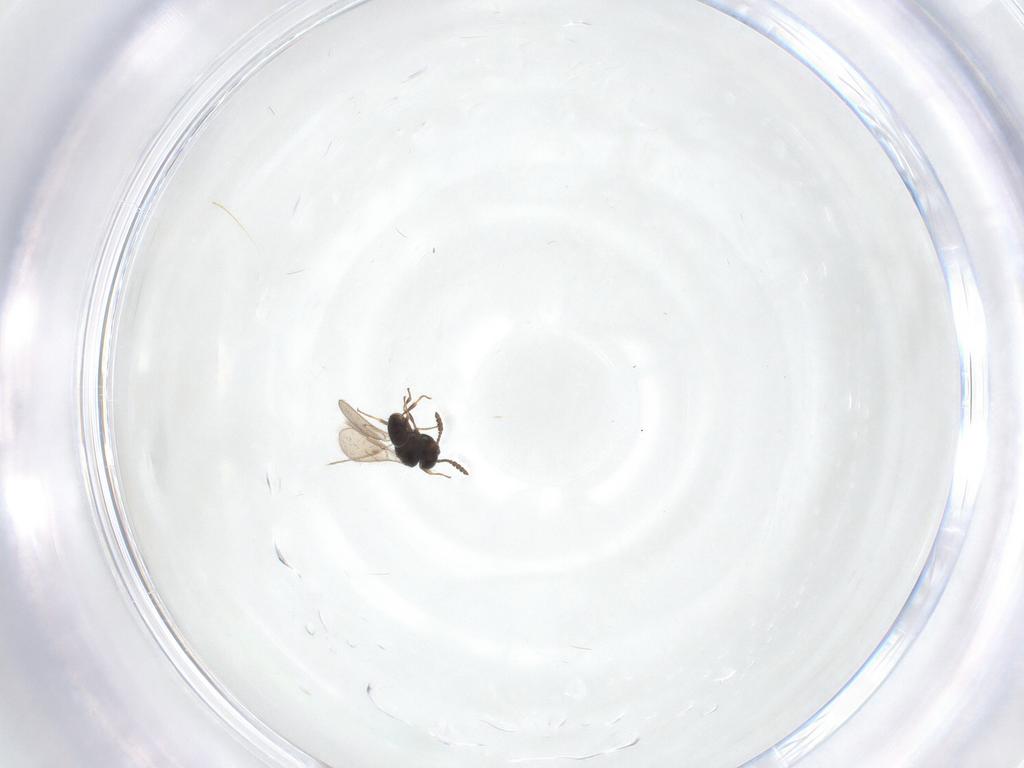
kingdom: Animalia
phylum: Arthropoda
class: Insecta
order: Hymenoptera
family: Scelionidae
